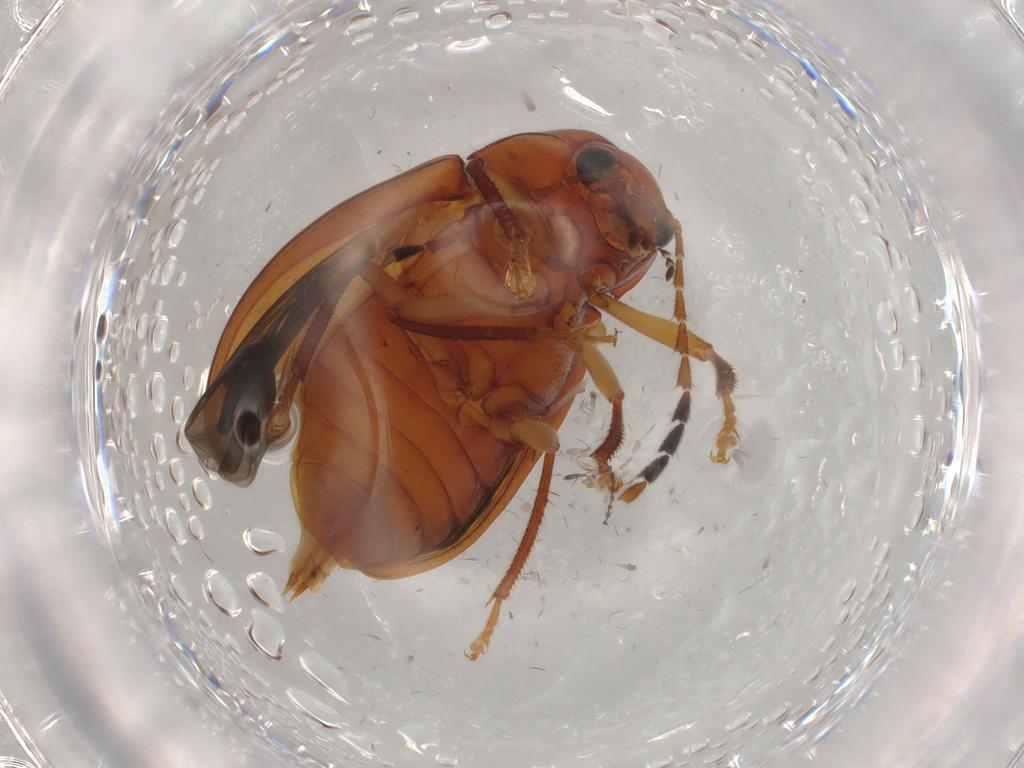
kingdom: Animalia
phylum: Arthropoda
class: Insecta
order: Coleoptera
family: Ptilodactylidae
